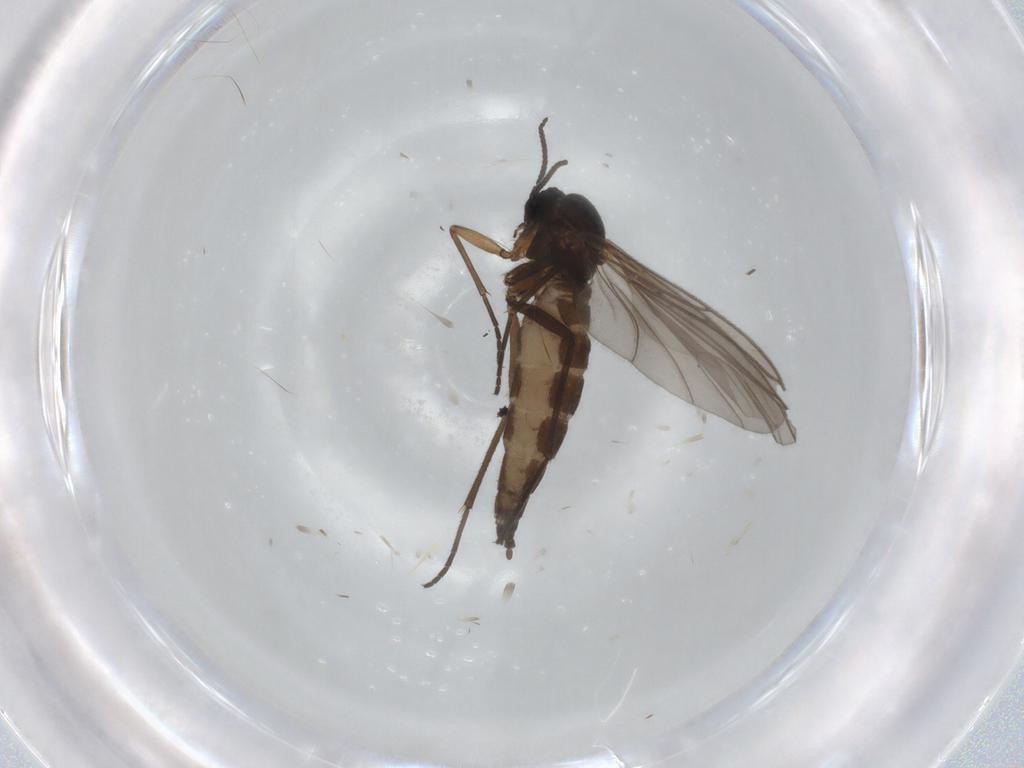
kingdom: Animalia
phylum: Arthropoda
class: Insecta
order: Diptera
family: Sciaridae
